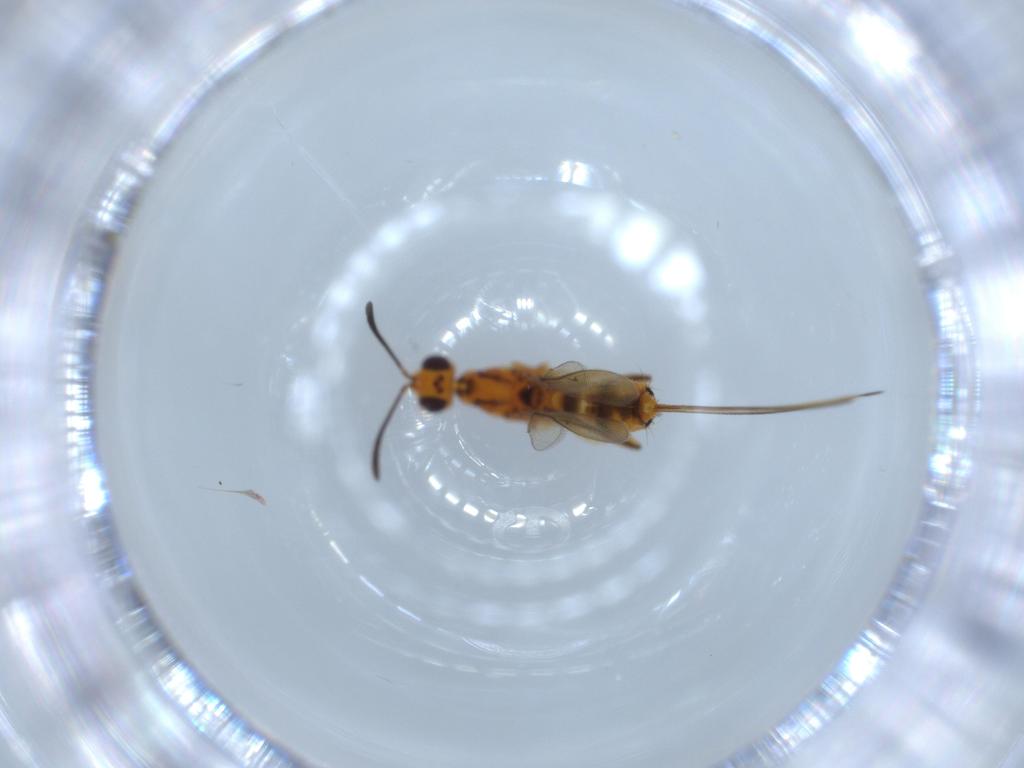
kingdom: Animalia
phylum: Arthropoda
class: Insecta
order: Hymenoptera
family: Eupelmidae
